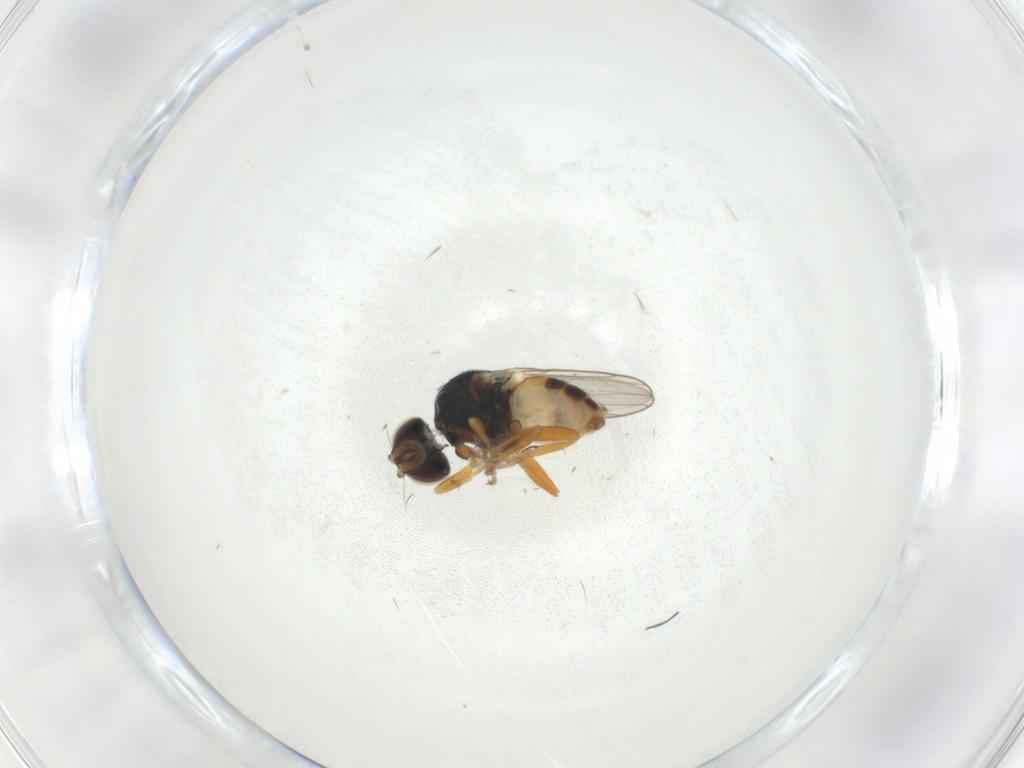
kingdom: Animalia
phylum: Arthropoda
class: Insecta
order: Diptera
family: Chloropidae
